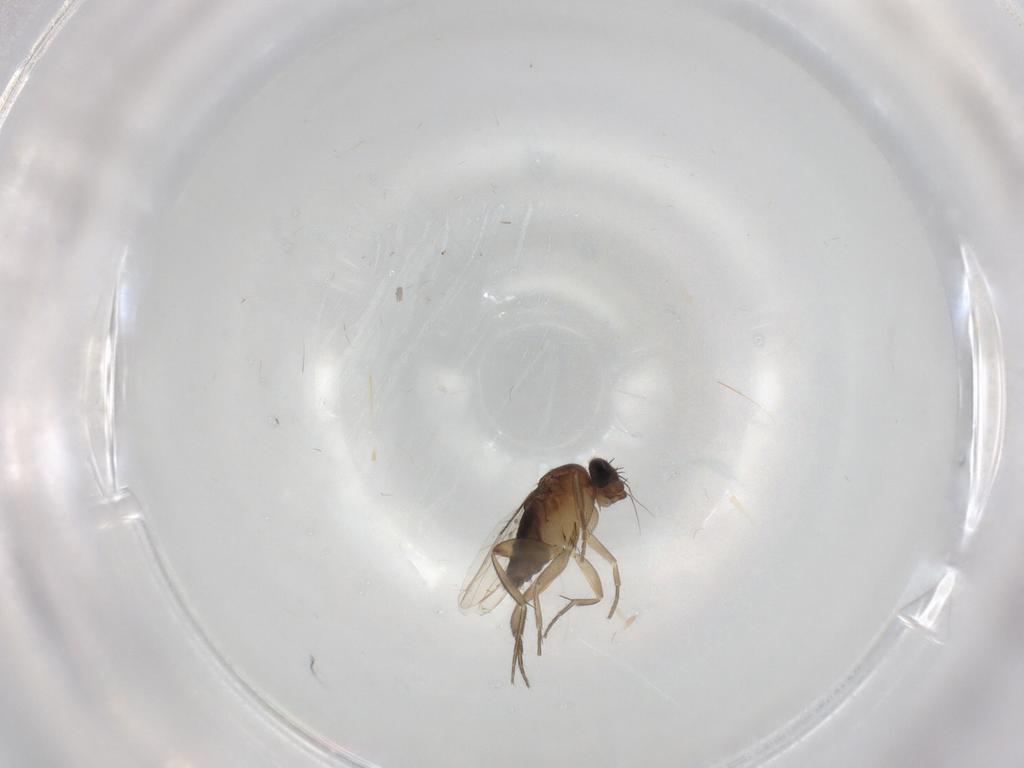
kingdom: Animalia
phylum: Arthropoda
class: Insecta
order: Diptera
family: Phoridae
